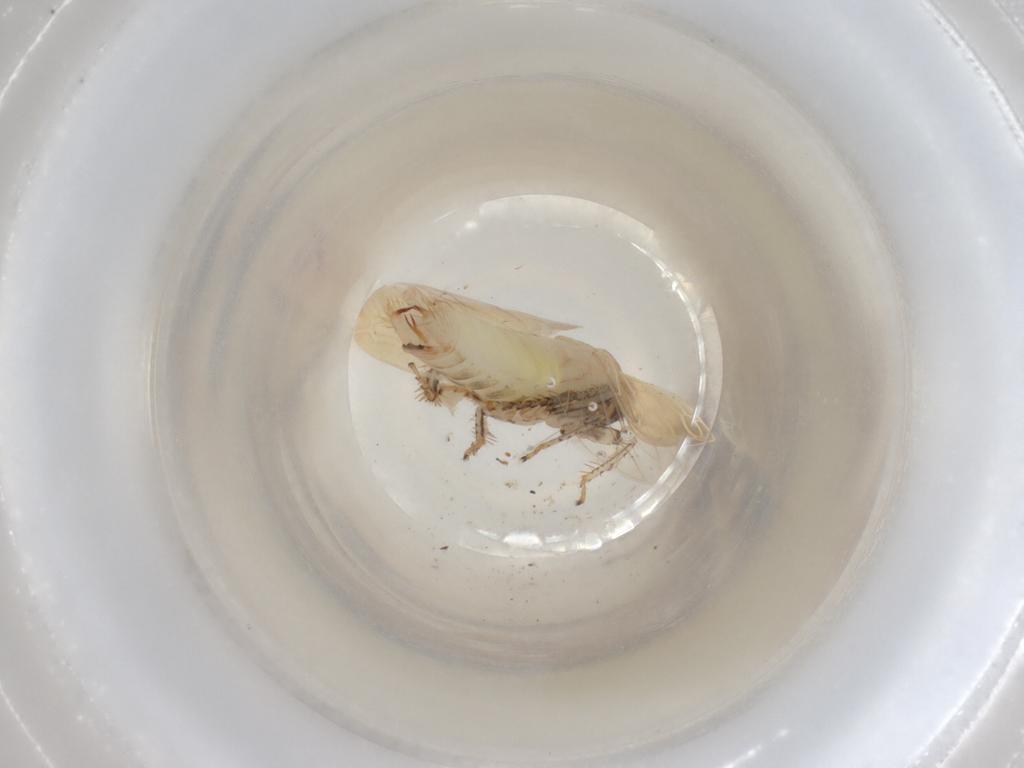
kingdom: Animalia
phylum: Arthropoda
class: Insecta
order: Hemiptera
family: Cicadellidae
